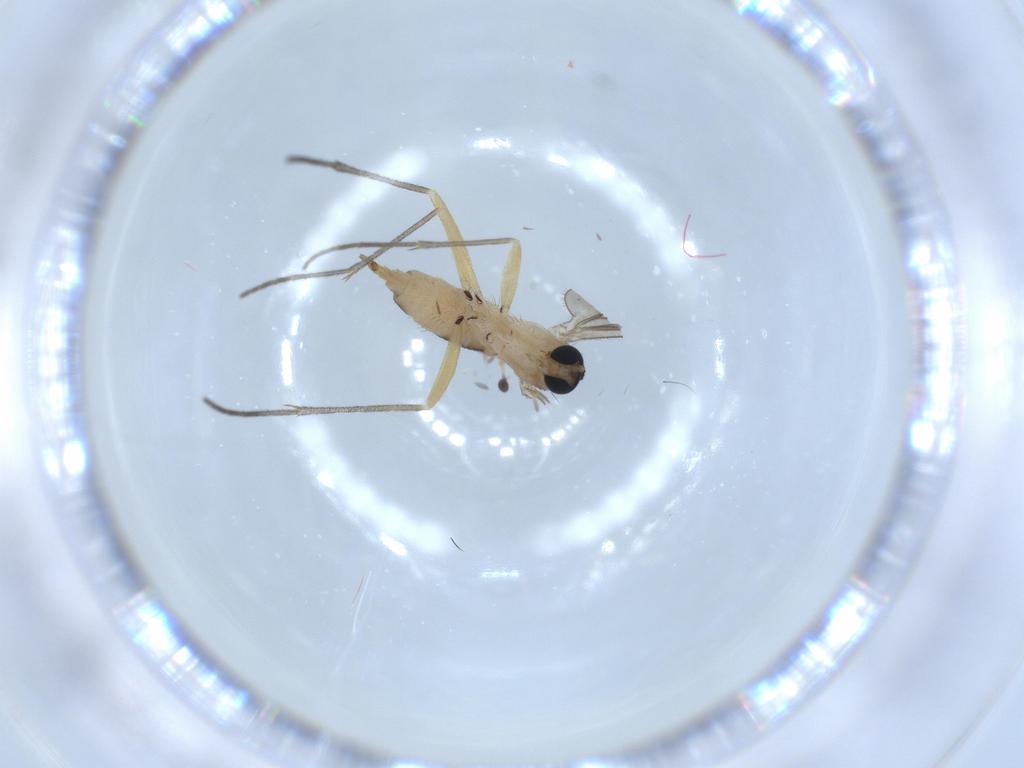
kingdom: Animalia
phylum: Arthropoda
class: Insecta
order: Diptera
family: Sciaridae
